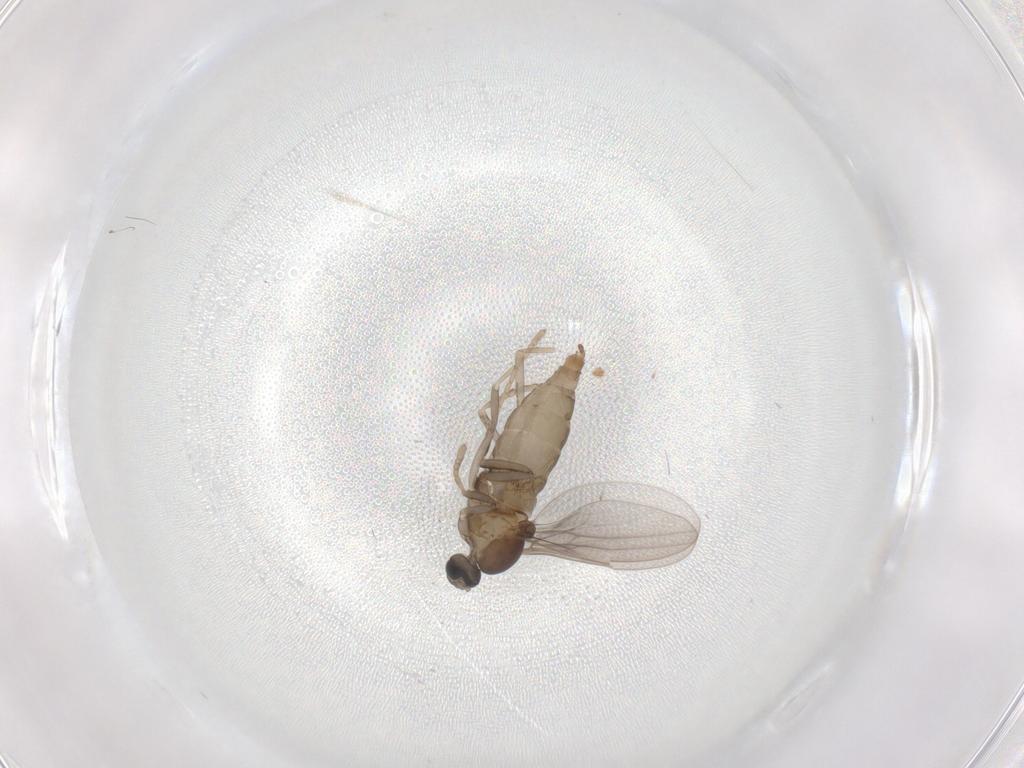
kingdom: Animalia
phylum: Arthropoda
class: Insecta
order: Diptera
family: Cecidomyiidae
